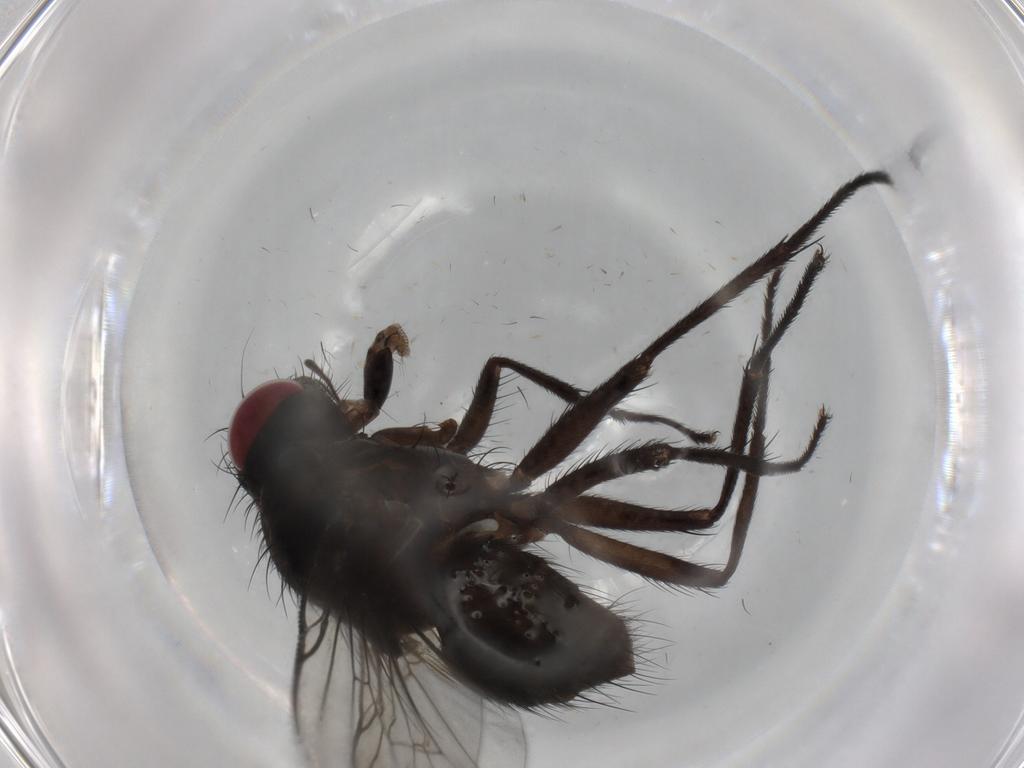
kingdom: Animalia
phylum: Arthropoda
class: Insecta
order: Diptera
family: Muscidae
